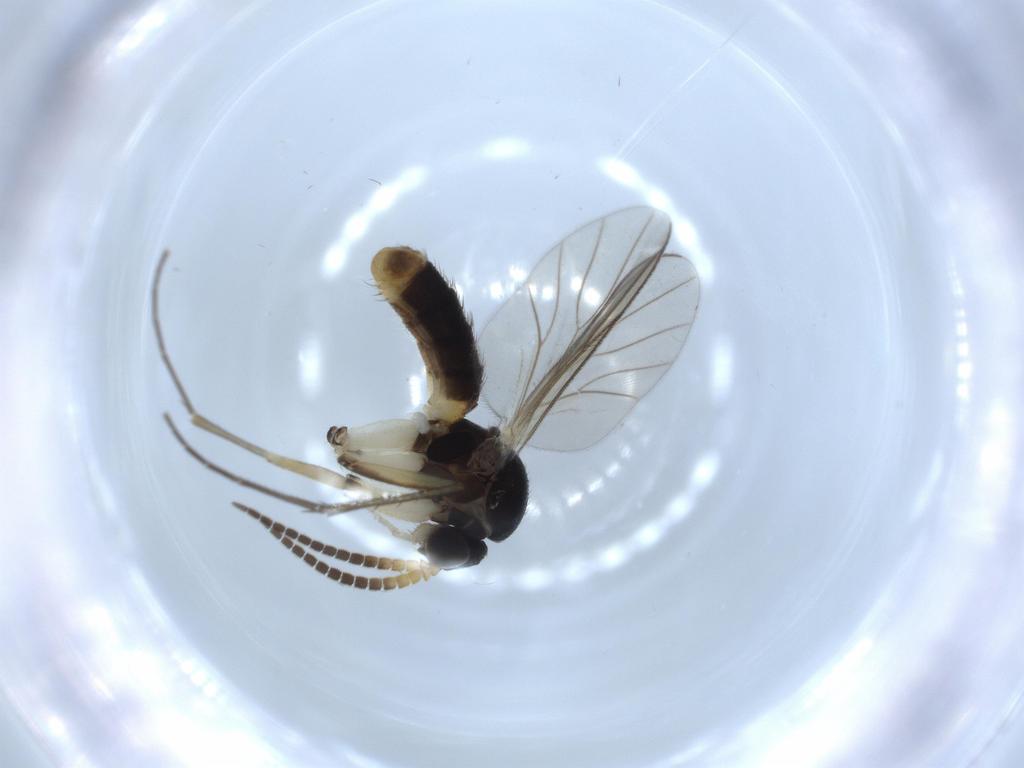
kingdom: Animalia
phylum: Arthropoda
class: Insecta
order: Diptera
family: Mycetophilidae
